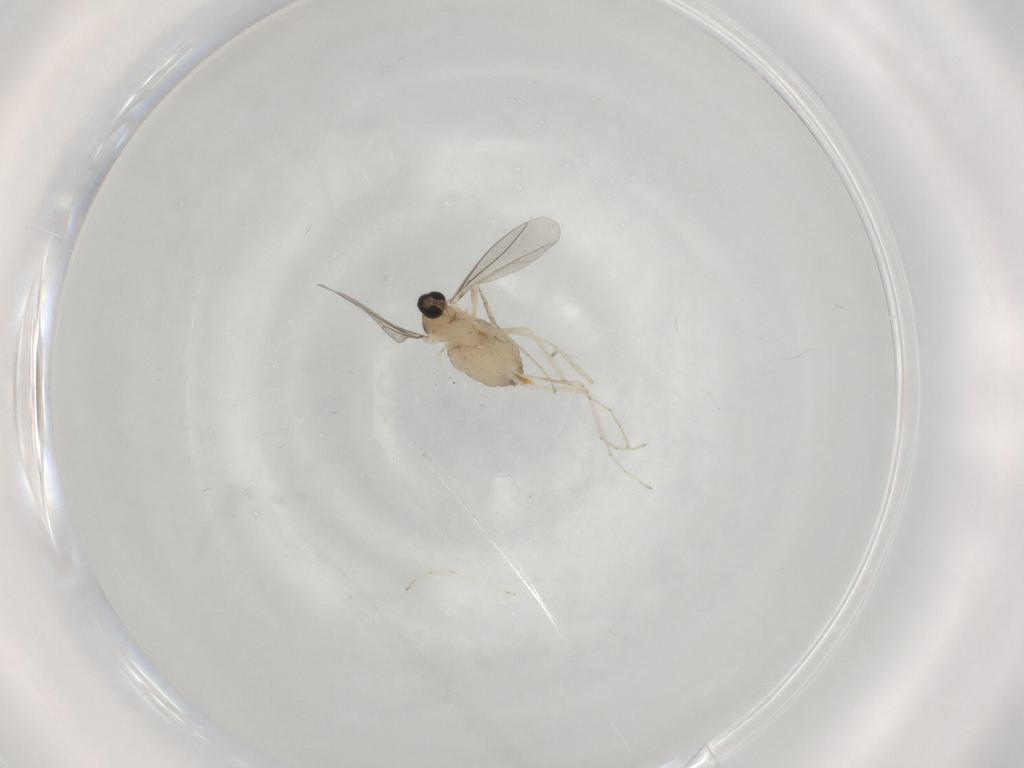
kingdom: Animalia
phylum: Arthropoda
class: Insecta
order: Diptera
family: Cecidomyiidae
